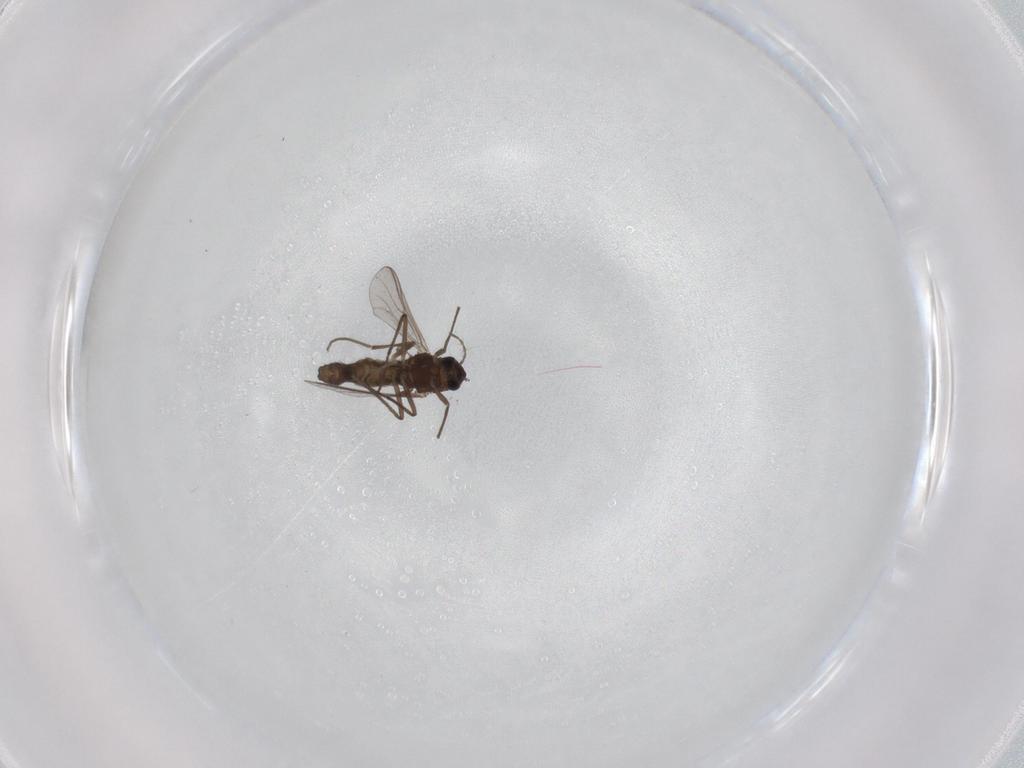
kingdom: Animalia
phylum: Arthropoda
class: Insecta
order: Diptera
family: Chironomidae
